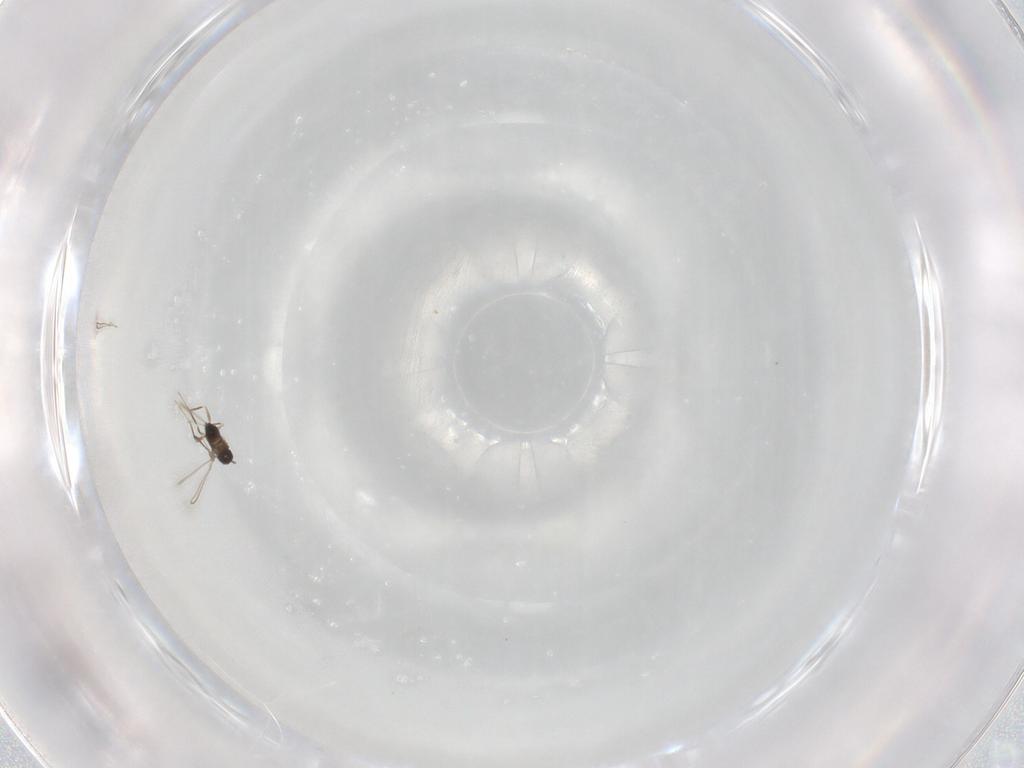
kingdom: Animalia
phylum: Arthropoda
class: Insecta
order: Hymenoptera
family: Mymaridae
